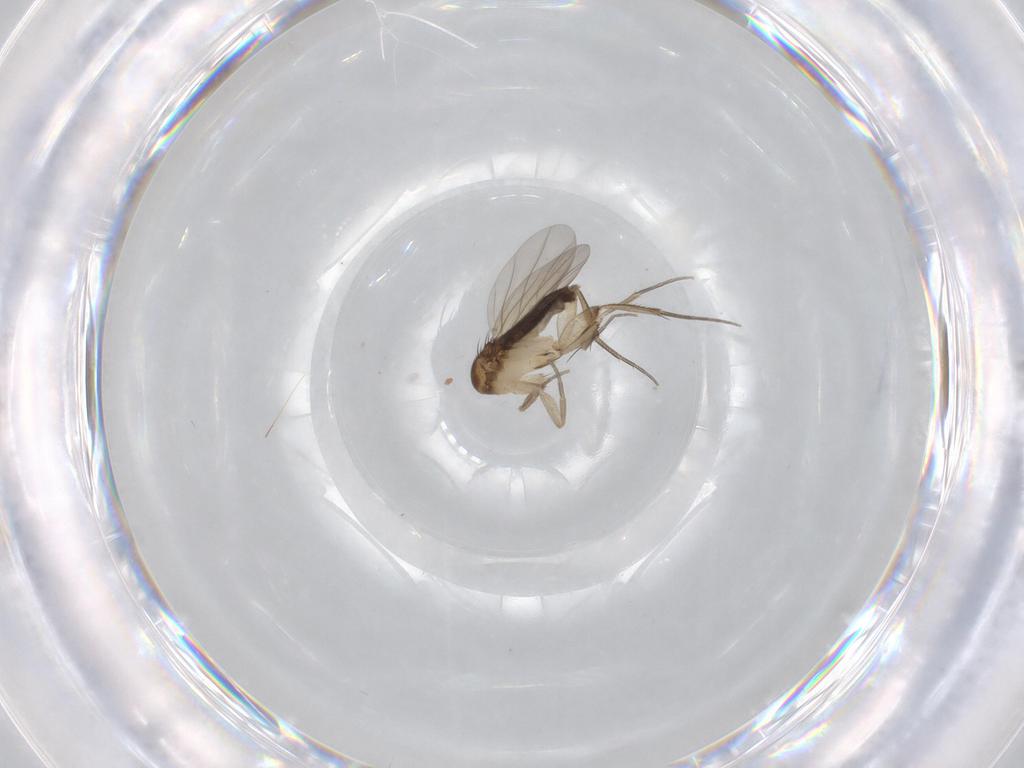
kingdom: Animalia
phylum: Arthropoda
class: Insecta
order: Diptera
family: Phoridae
